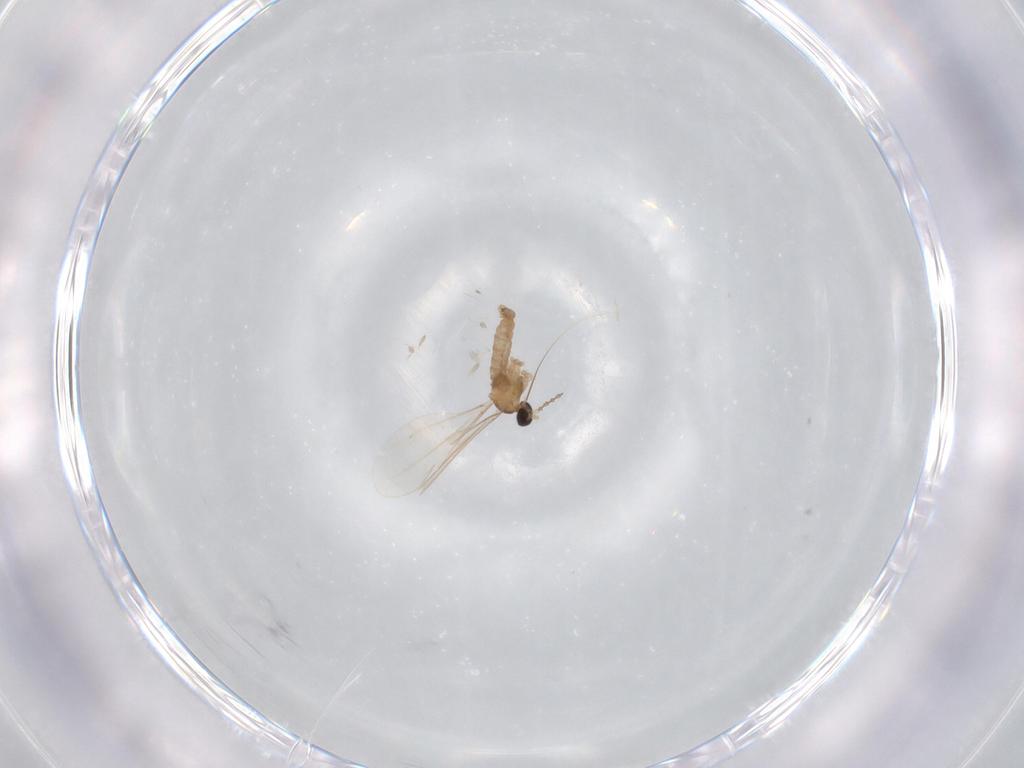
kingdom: Animalia
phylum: Arthropoda
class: Insecta
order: Diptera
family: Cecidomyiidae
